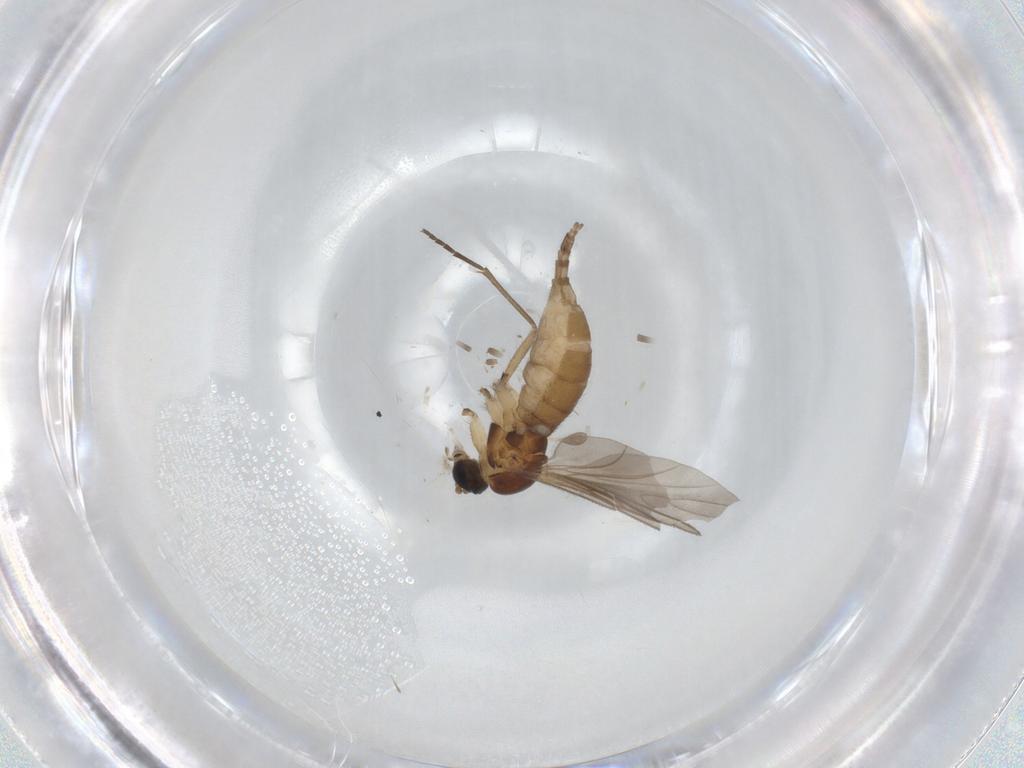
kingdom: Animalia
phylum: Arthropoda
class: Insecta
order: Diptera
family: Sciaridae
